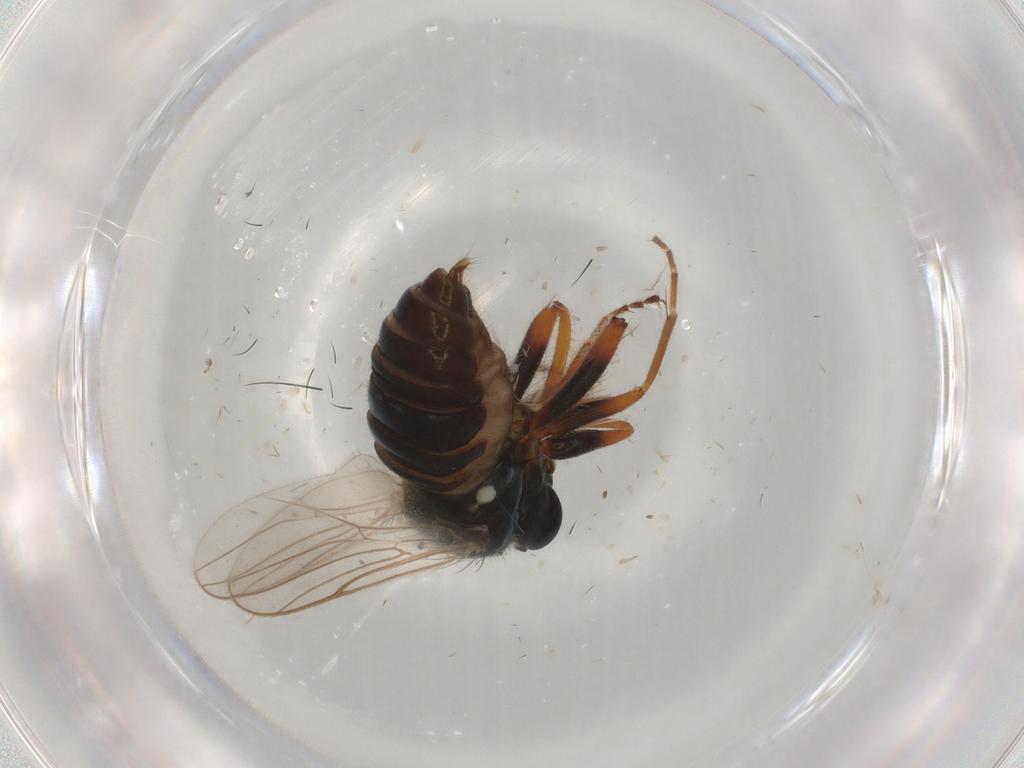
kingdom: Animalia
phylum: Arthropoda
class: Insecta
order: Diptera
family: Hybotidae
